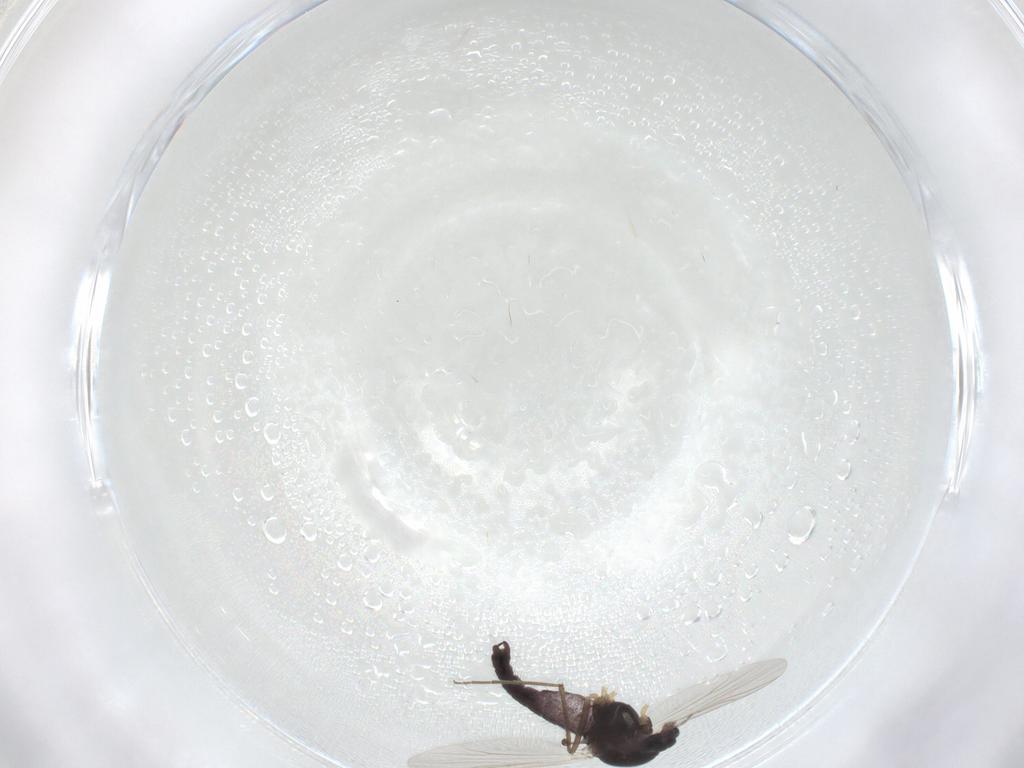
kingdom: Animalia
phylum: Arthropoda
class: Insecta
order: Diptera
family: Chironomidae
